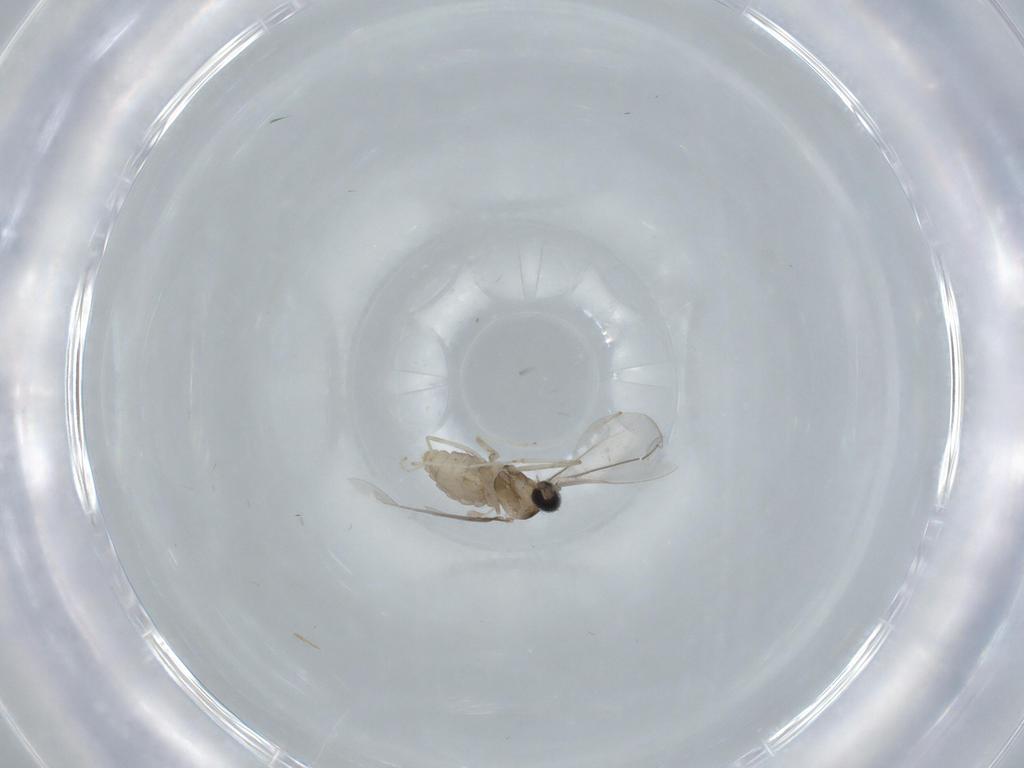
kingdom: Animalia
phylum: Arthropoda
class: Insecta
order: Diptera
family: Cecidomyiidae
